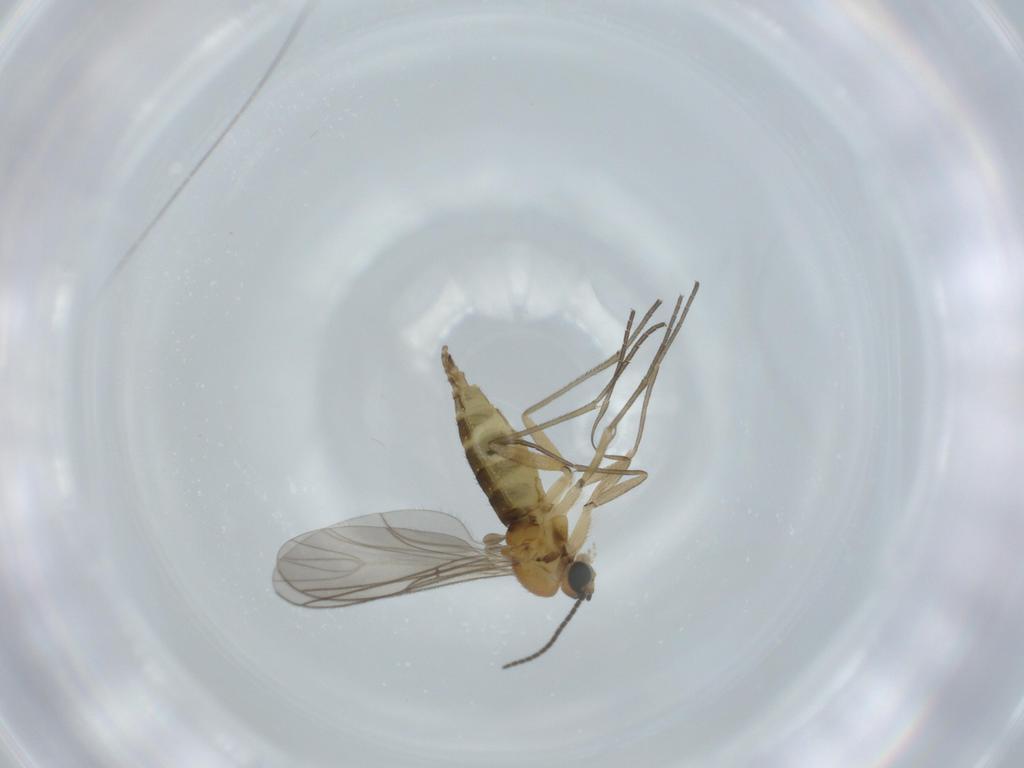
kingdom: Animalia
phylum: Arthropoda
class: Insecta
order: Diptera
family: Sciaridae
